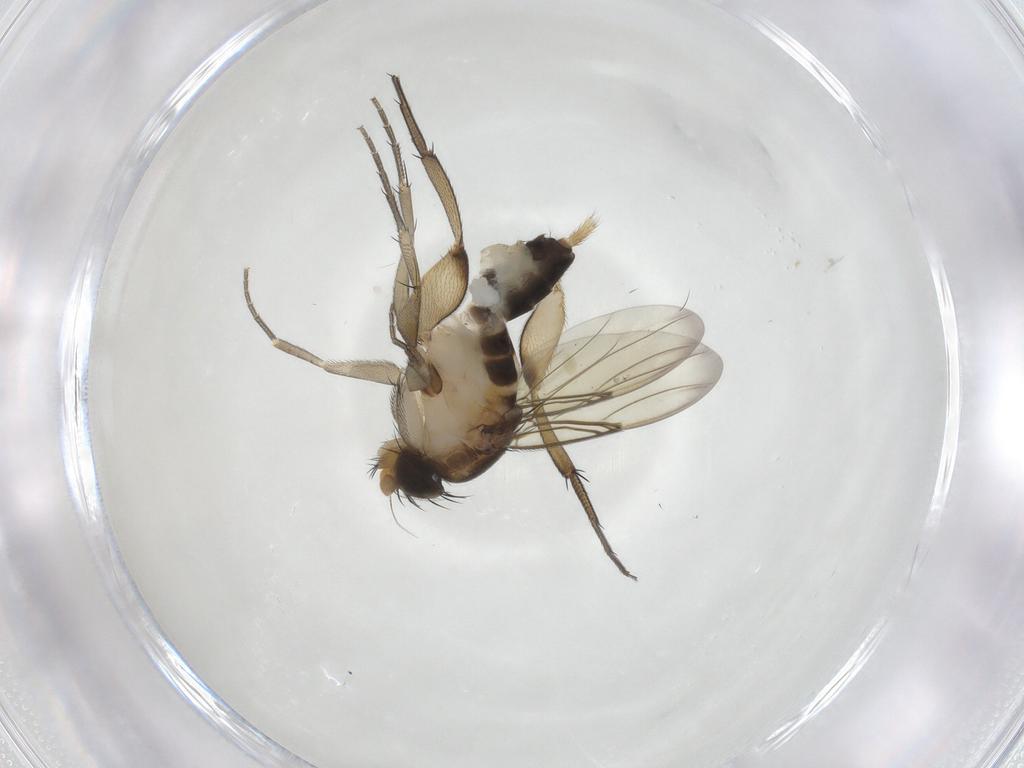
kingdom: Animalia
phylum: Arthropoda
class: Insecta
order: Diptera
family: Phoridae
